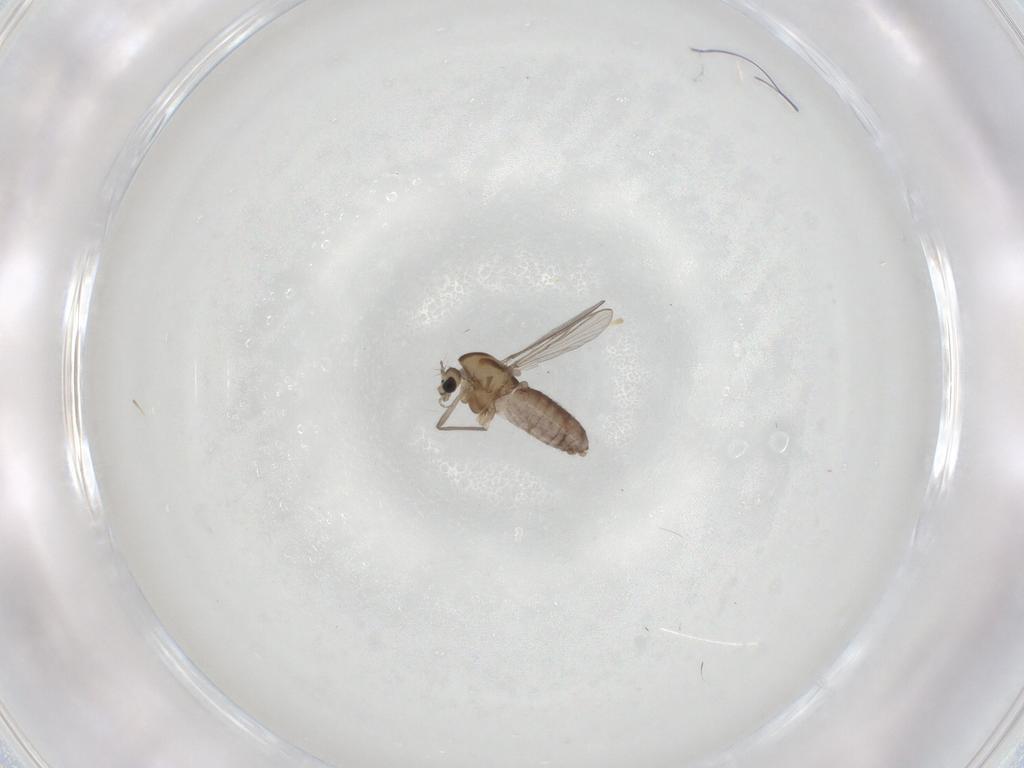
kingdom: Animalia
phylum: Arthropoda
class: Insecta
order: Diptera
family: Chironomidae
